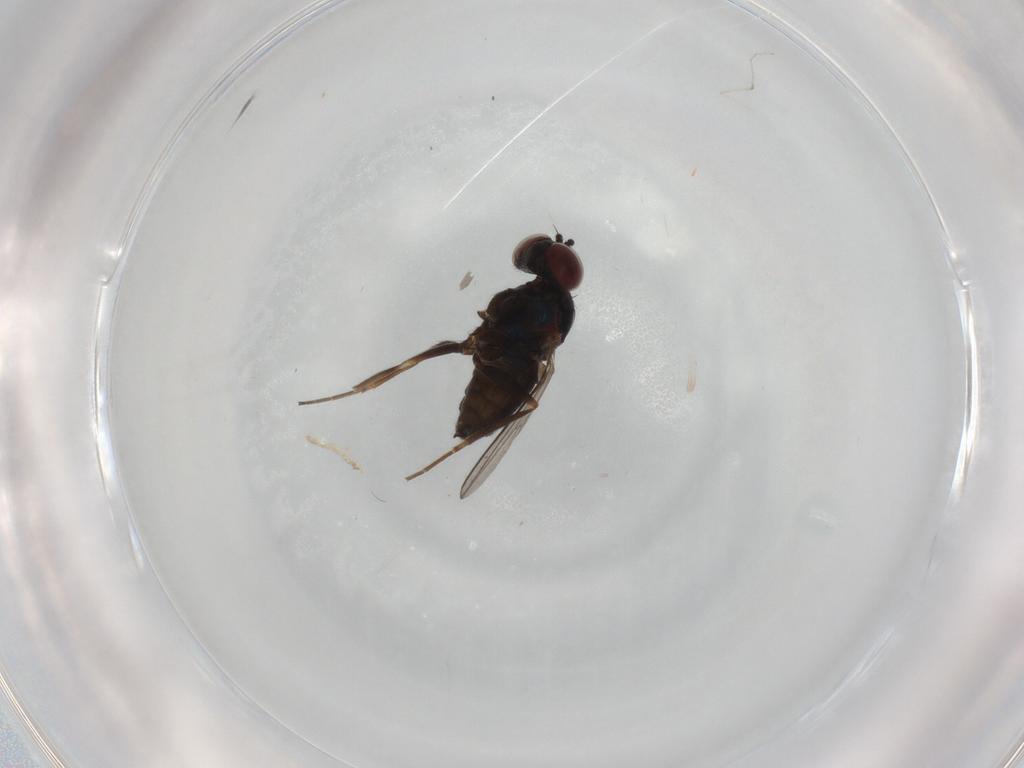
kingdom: Animalia
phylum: Arthropoda
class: Insecta
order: Diptera
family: Dolichopodidae
